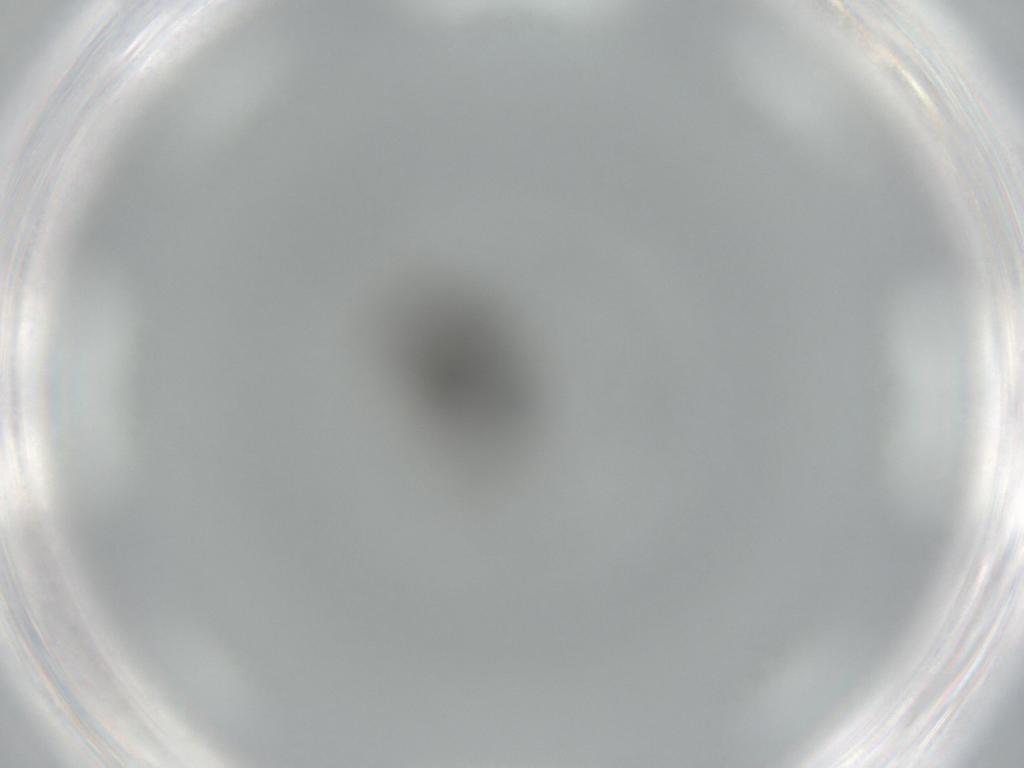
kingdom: Animalia
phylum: Arthropoda
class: Insecta
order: Diptera
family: Phoridae
